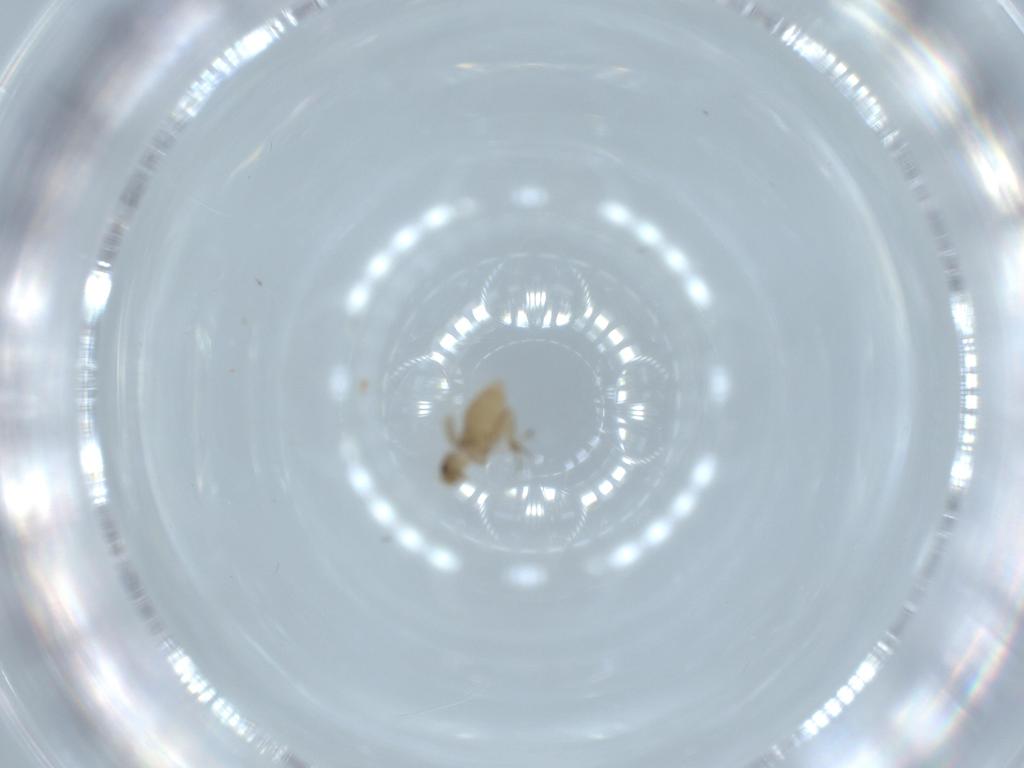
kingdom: Animalia
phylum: Arthropoda
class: Insecta
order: Diptera
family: Phoridae
